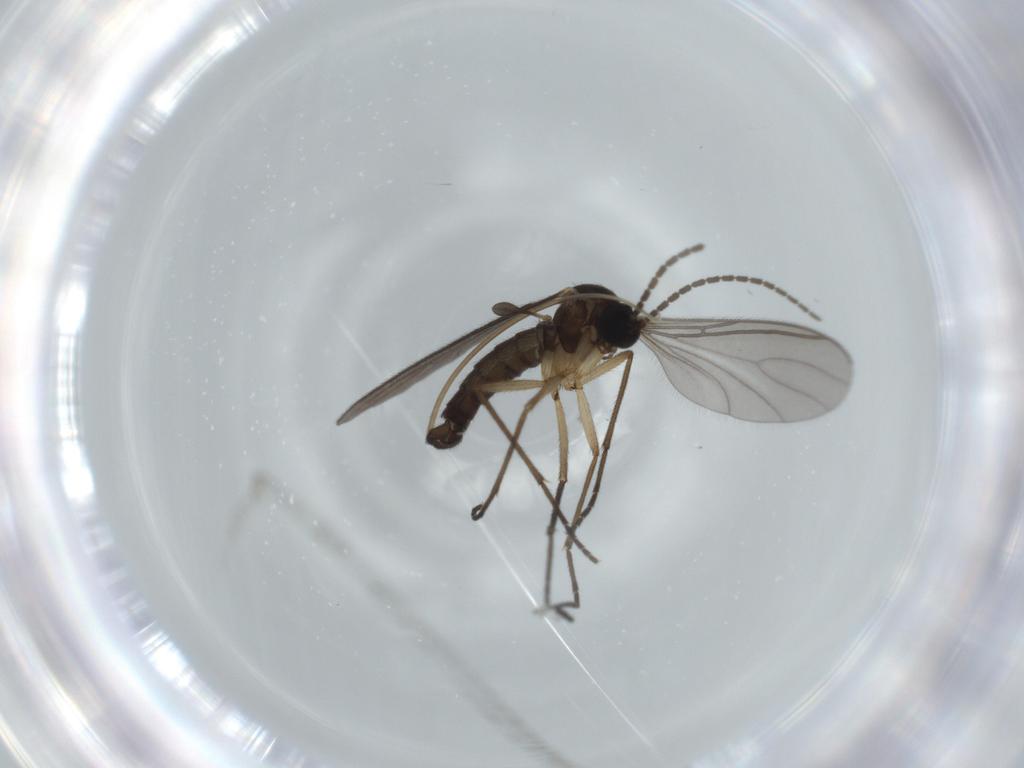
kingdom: Animalia
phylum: Arthropoda
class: Insecta
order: Diptera
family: Sciaridae
